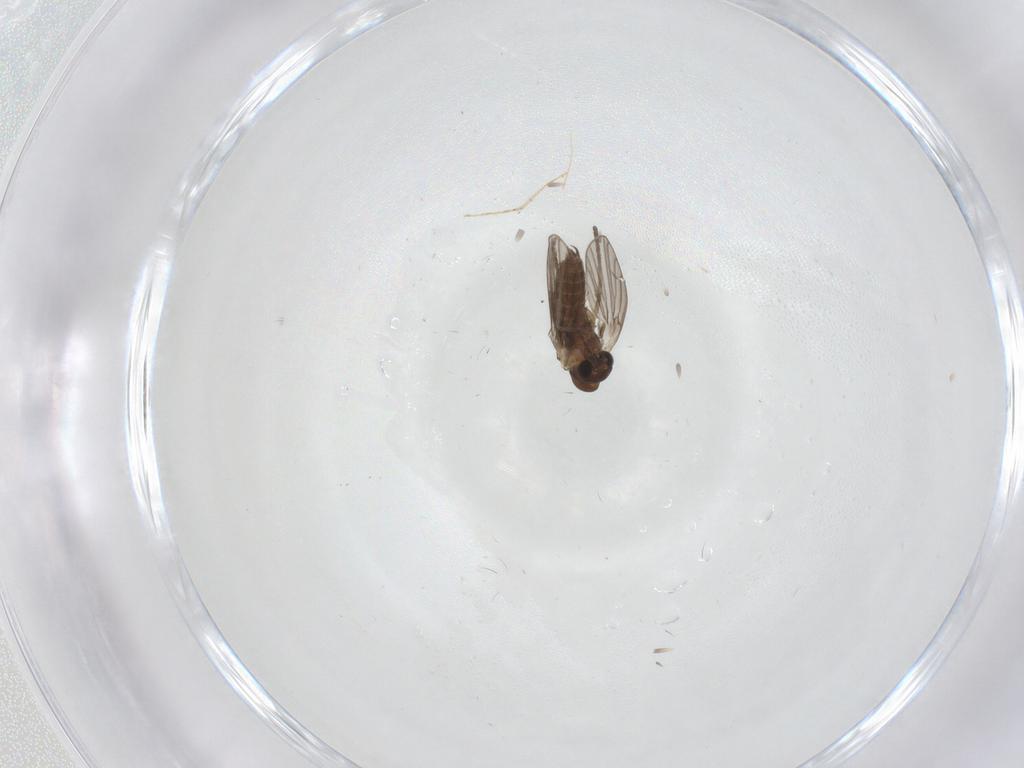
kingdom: Animalia
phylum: Arthropoda
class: Insecta
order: Diptera
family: Cecidomyiidae
